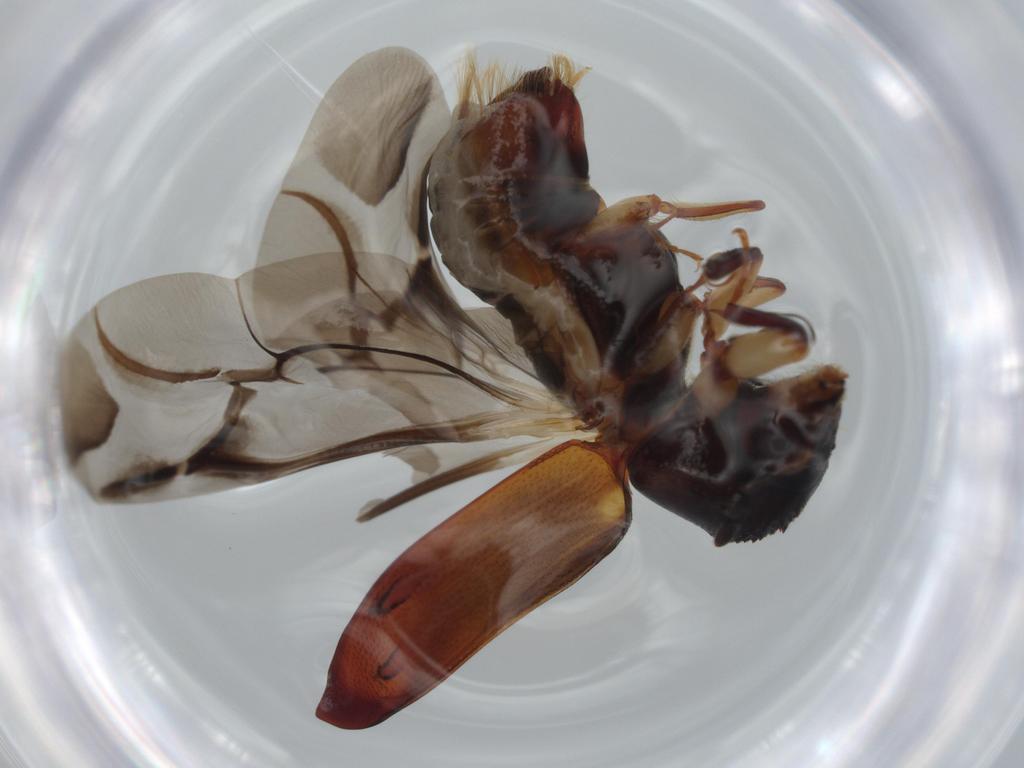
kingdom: Animalia
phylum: Arthropoda
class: Insecta
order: Coleoptera
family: Bostrichidae
